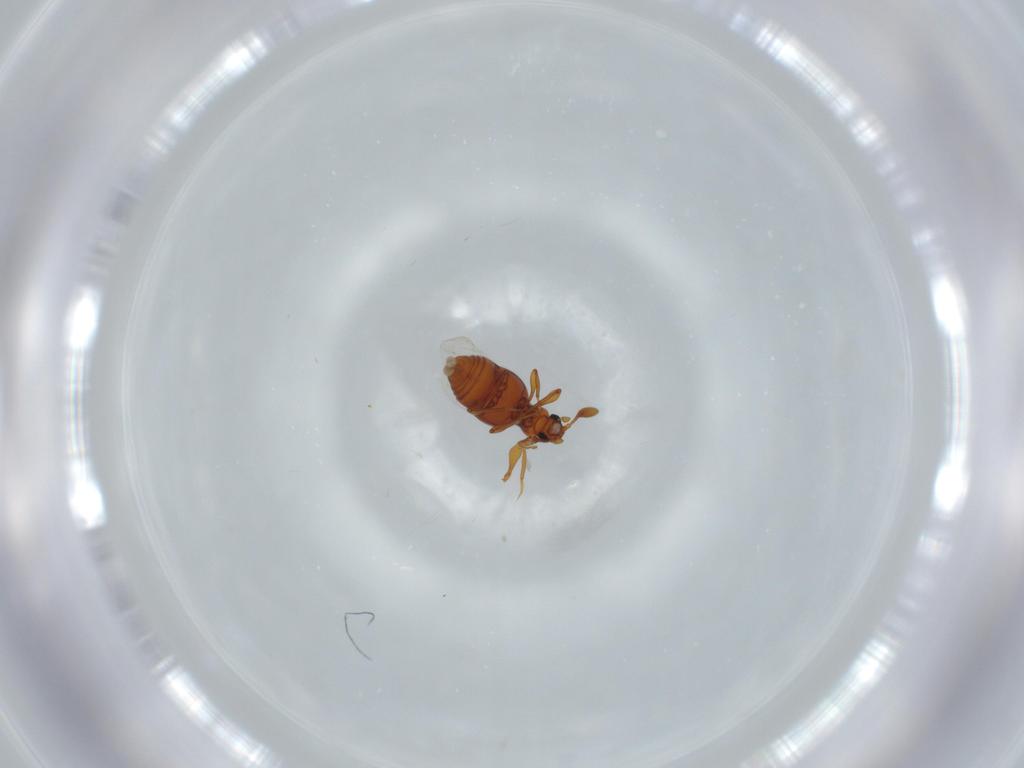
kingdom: Animalia
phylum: Arthropoda
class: Insecta
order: Coleoptera
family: Staphylinidae
